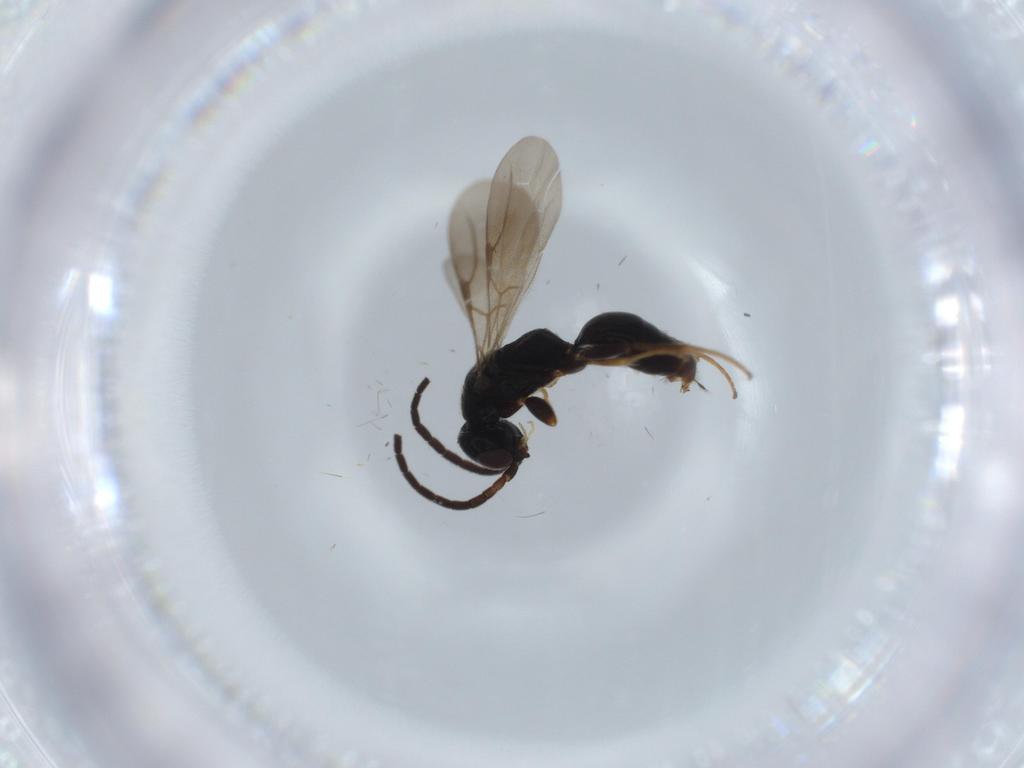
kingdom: Animalia
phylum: Arthropoda
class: Insecta
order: Hymenoptera
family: Bethylidae
